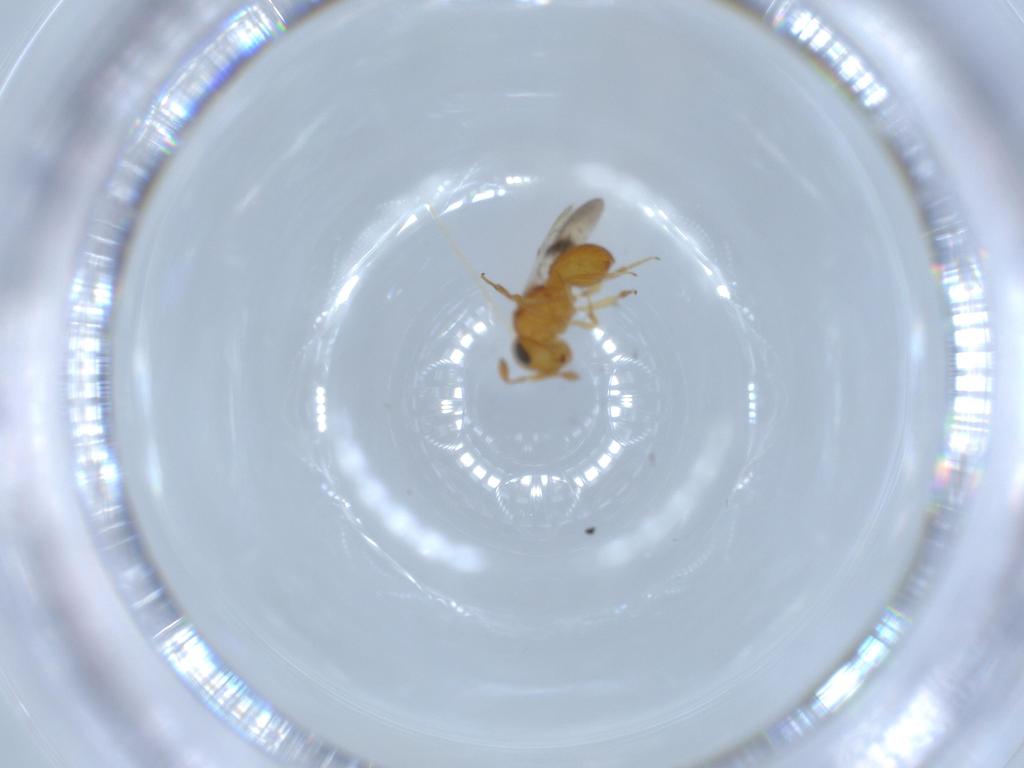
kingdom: Animalia
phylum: Arthropoda
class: Insecta
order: Hymenoptera
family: Scelionidae
